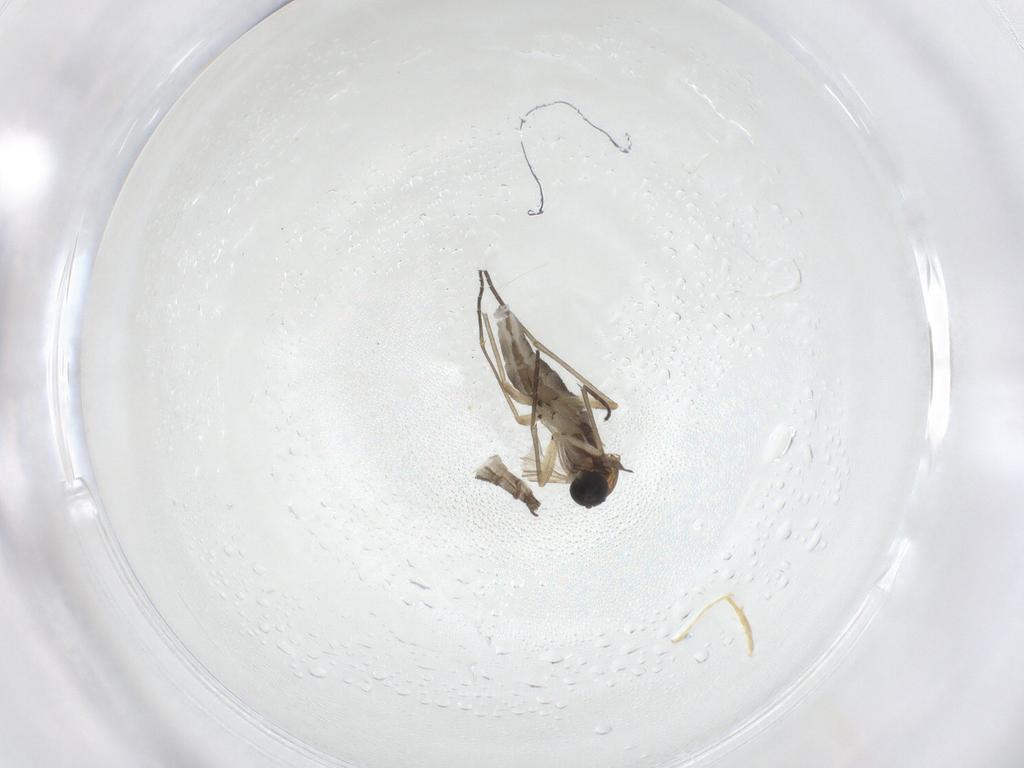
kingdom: Animalia
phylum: Arthropoda
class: Insecta
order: Diptera
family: Sciaridae
